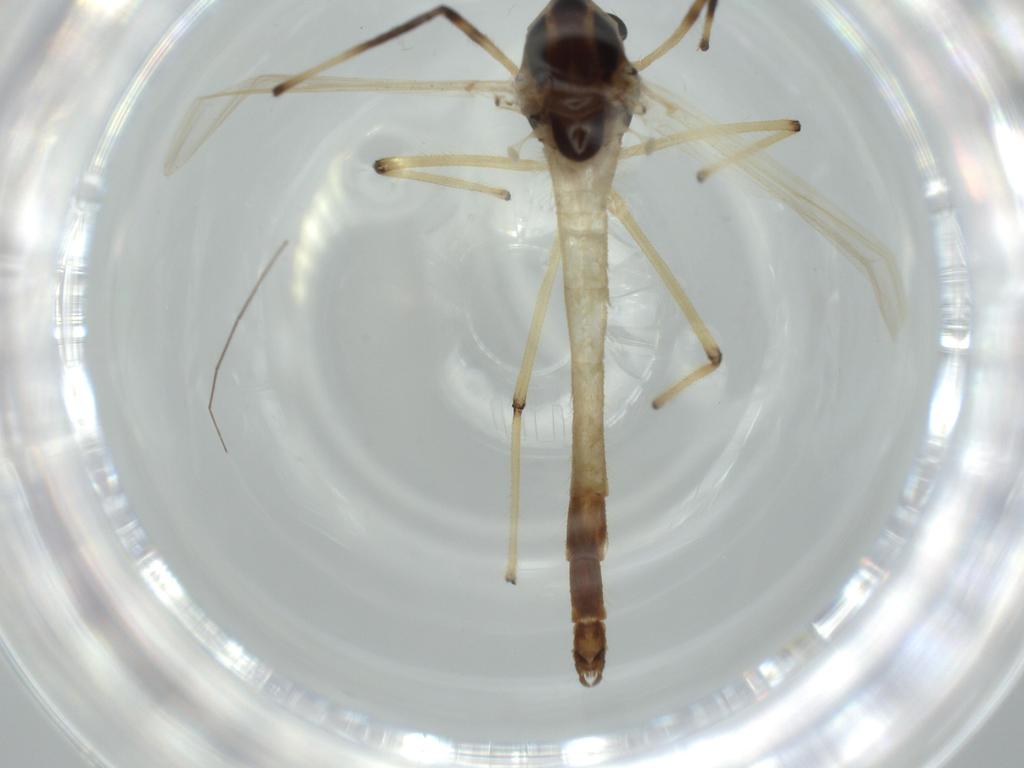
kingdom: Animalia
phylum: Arthropoda
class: Insecta
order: Diptera
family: Chironomidae
